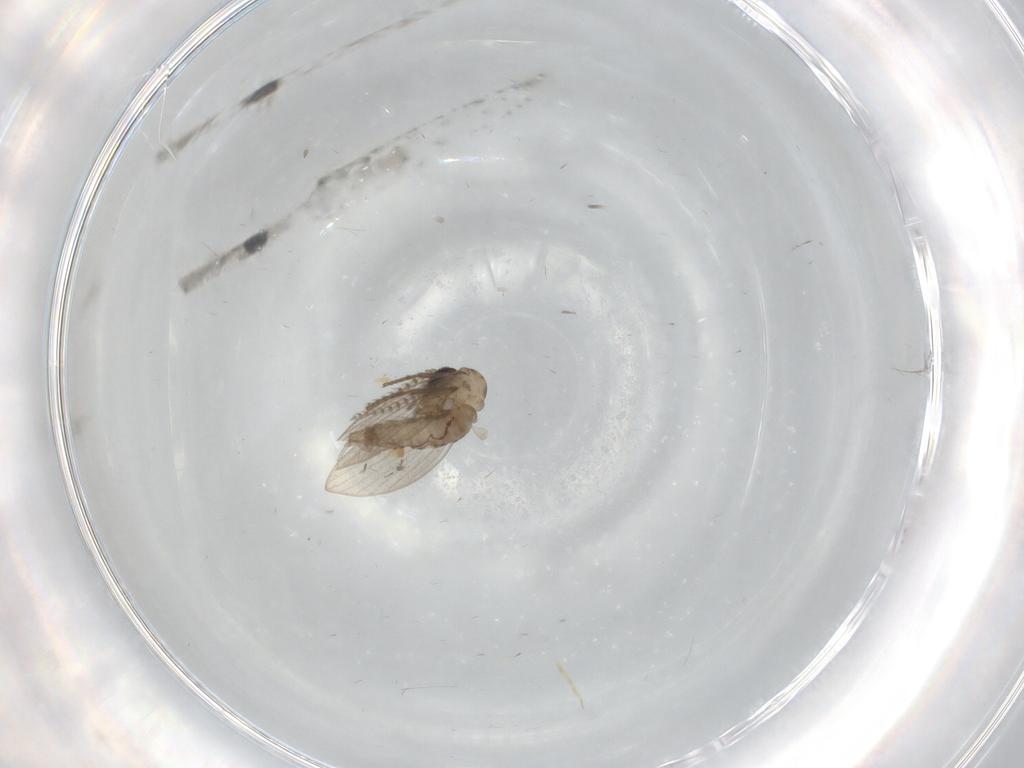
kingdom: Animalia
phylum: Arthropoda
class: Insecta
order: Diptera
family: Psychodidae
